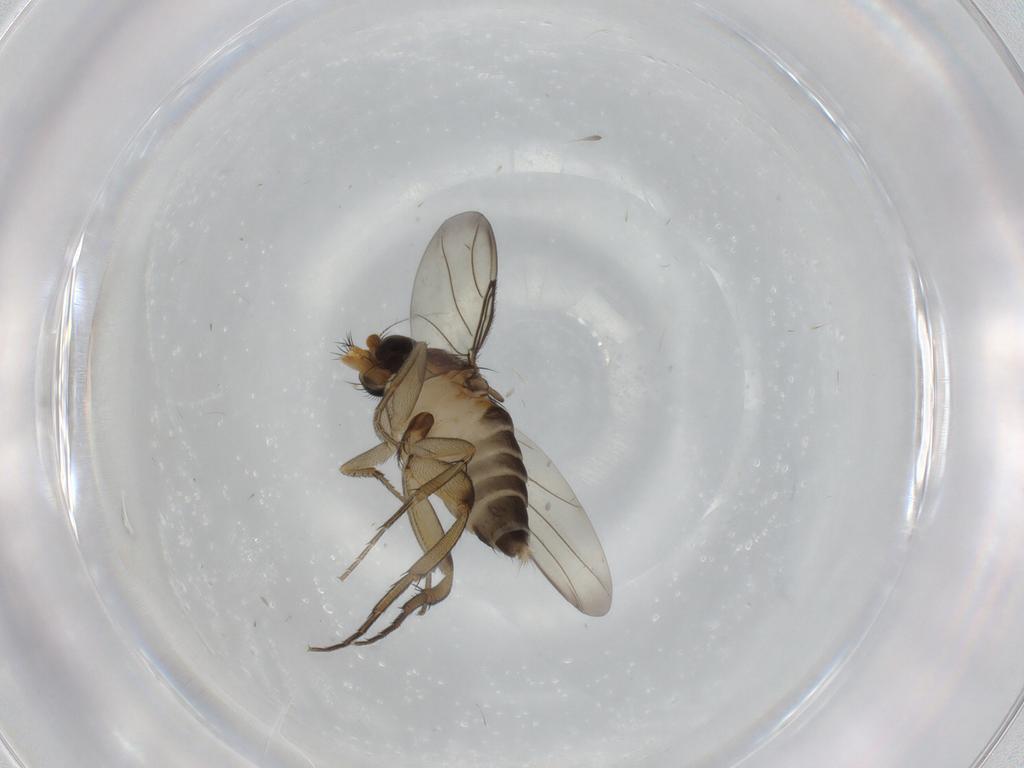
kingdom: Animalia
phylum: Arthropoda
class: Insecta
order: Diptera
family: Phoridae
